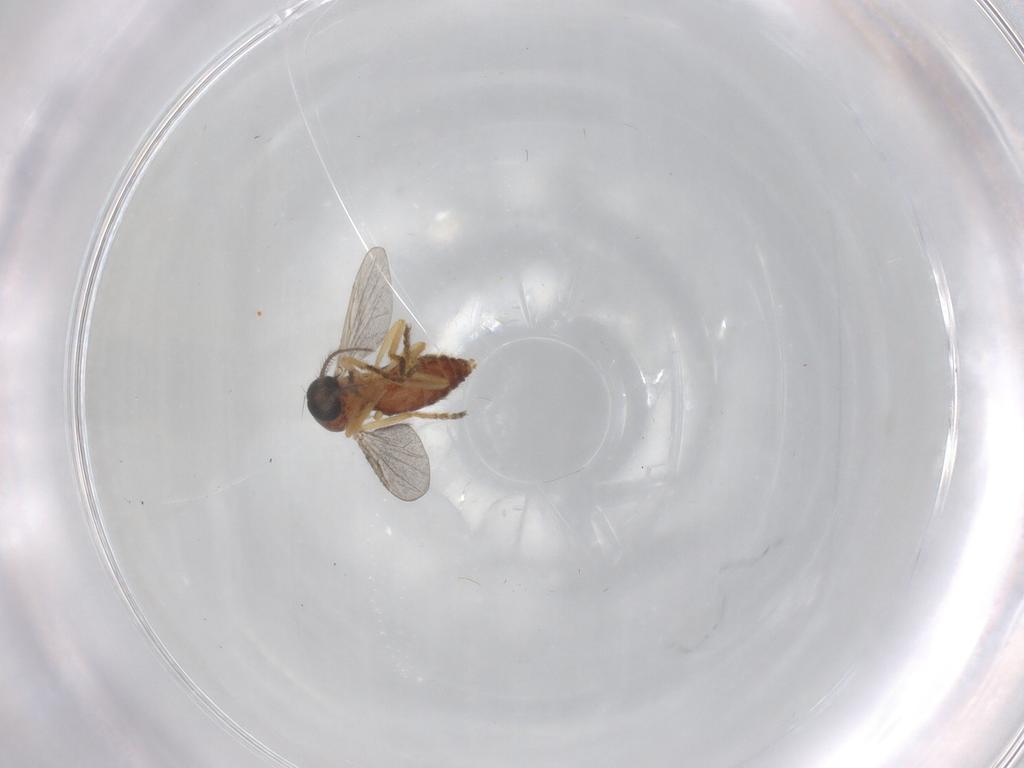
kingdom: Animalia
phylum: Arthropoda
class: Insecta
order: Diptera
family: Ceratopogonidae
